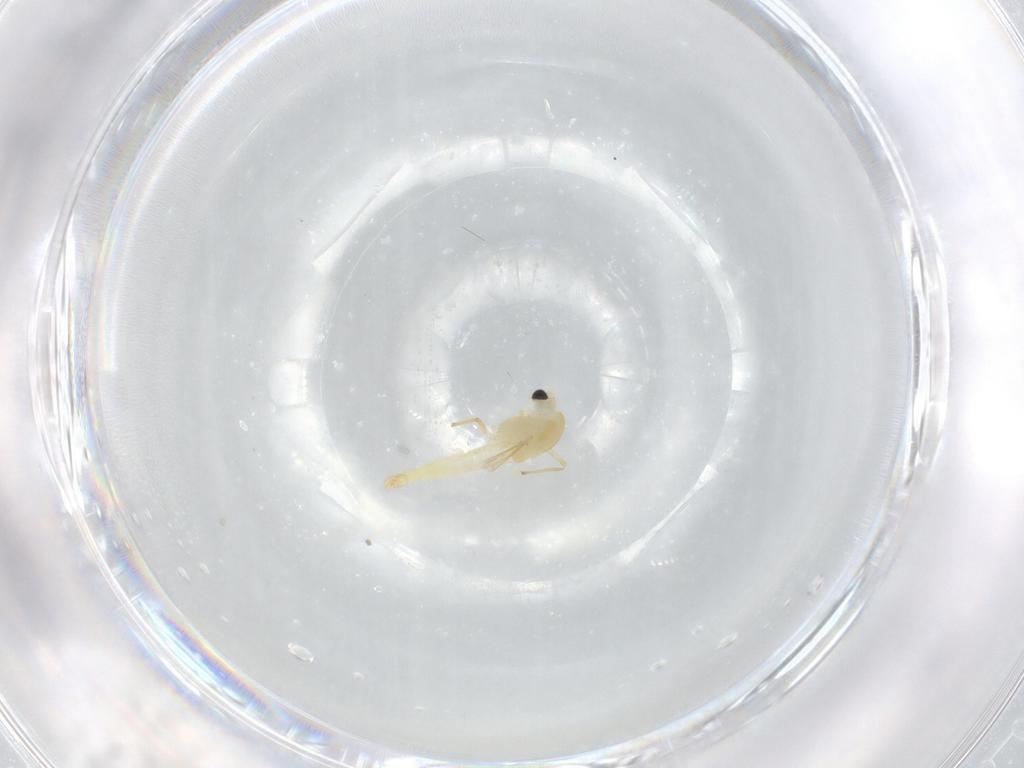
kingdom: Animalia
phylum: Arthropoda
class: Insecta
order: Diptera
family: Chironomidae
